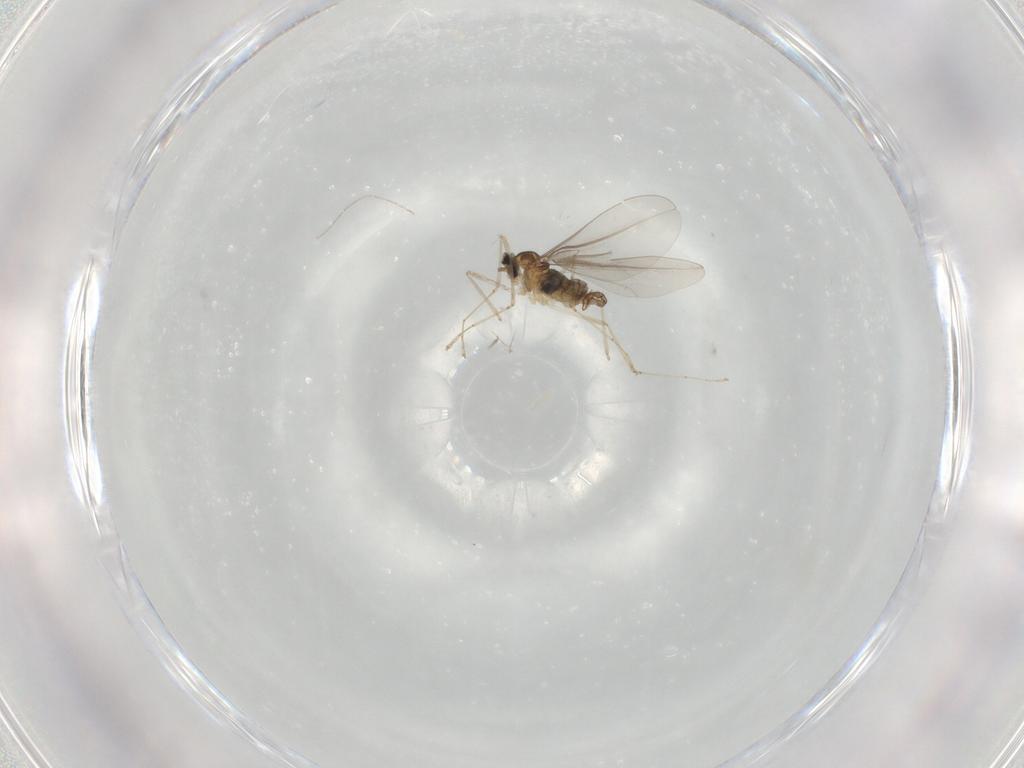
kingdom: Animalia
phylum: Arthropoda
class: Insecta
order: Diptera
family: Cecidomyiidae
